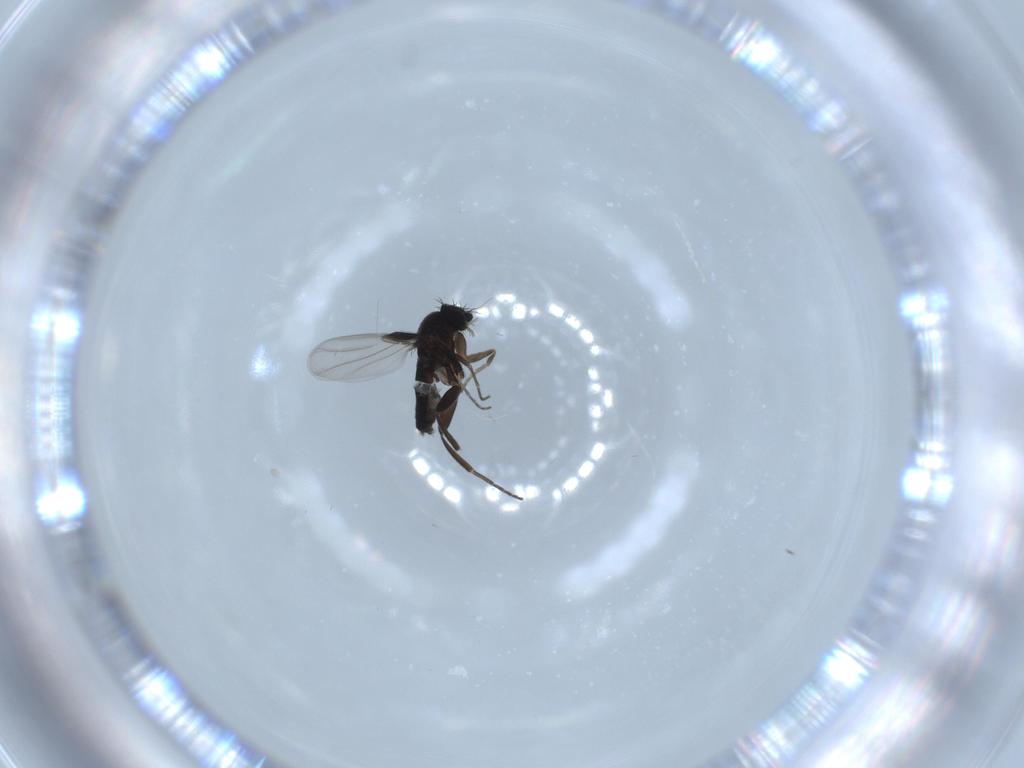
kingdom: Animalia
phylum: Arthropoda
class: Insecta
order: Diptera
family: Phoridae
